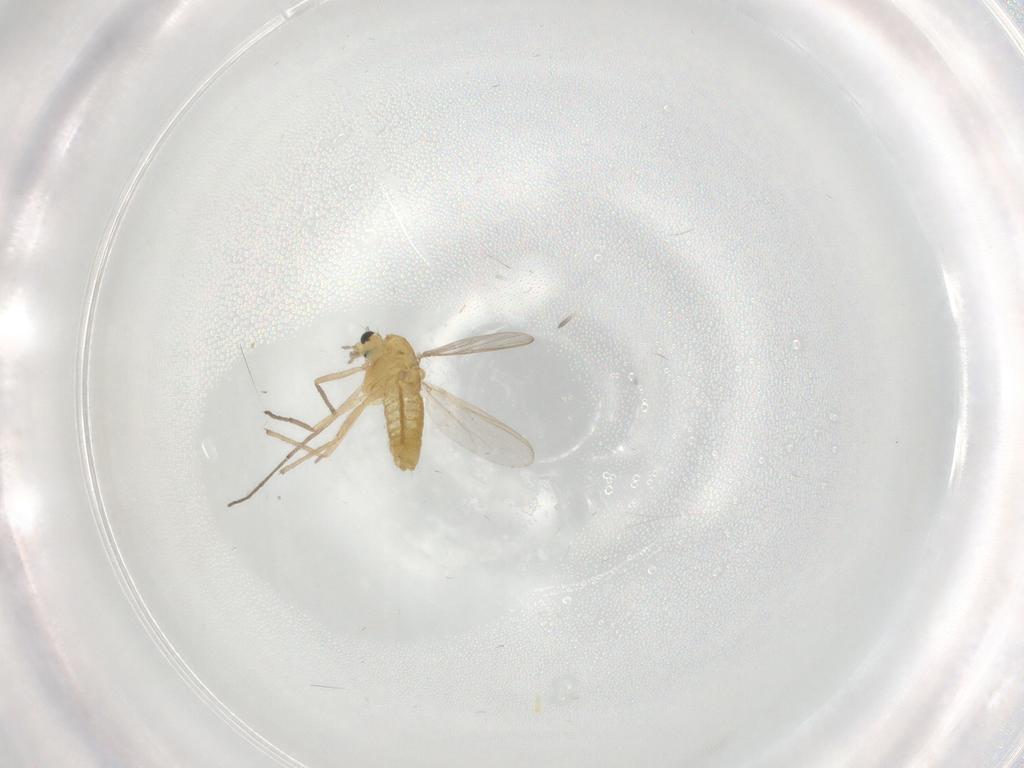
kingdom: Animalia
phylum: Arthropoda
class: Insecta
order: Diptera
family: Chironomidae
